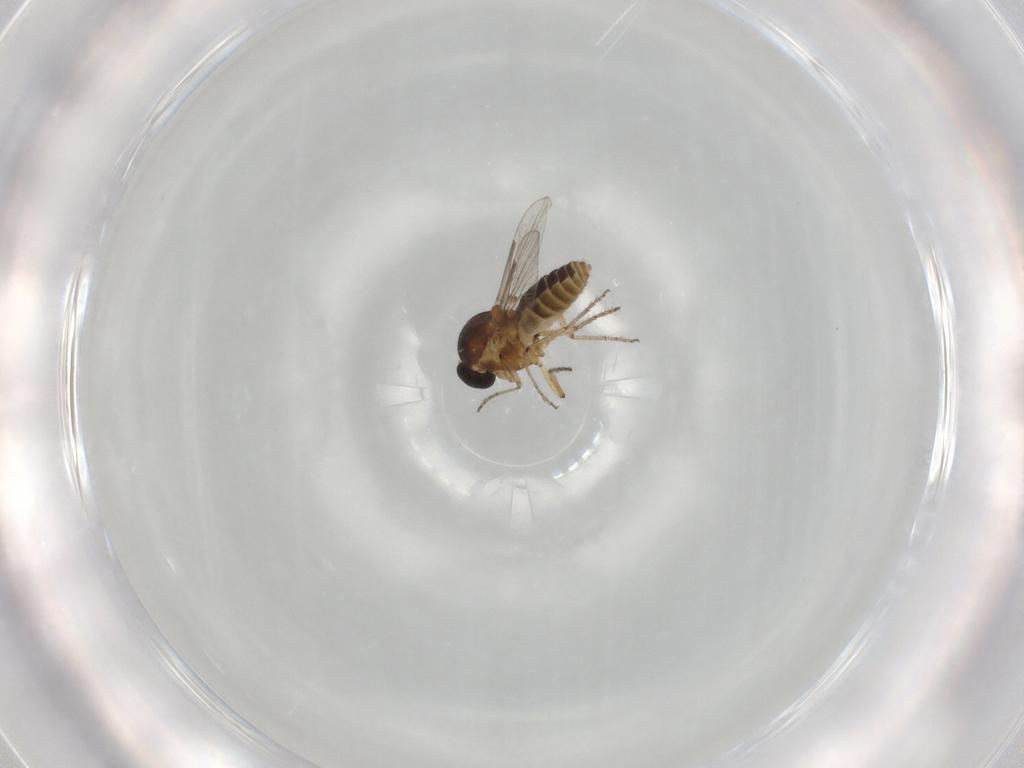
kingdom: Animalia
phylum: Arthropoda
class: Insecta
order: Diptera
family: Ceratopogonidae
